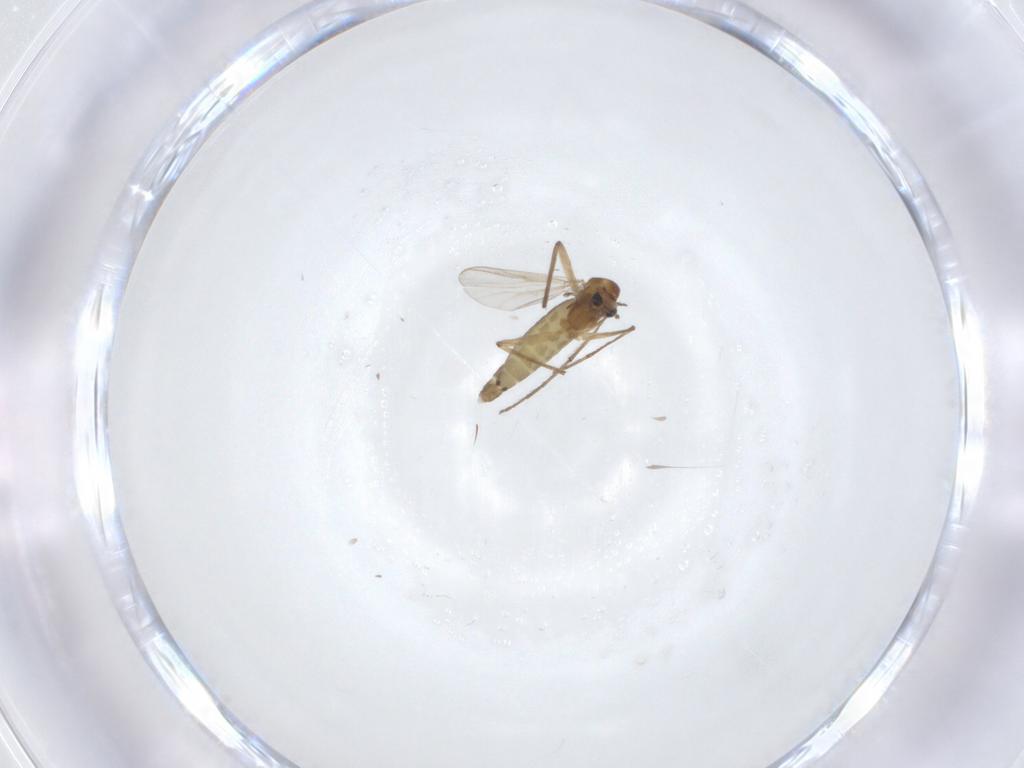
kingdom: Animalia
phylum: Arthropoda
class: Insecta
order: Diptera
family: Chironomidae
